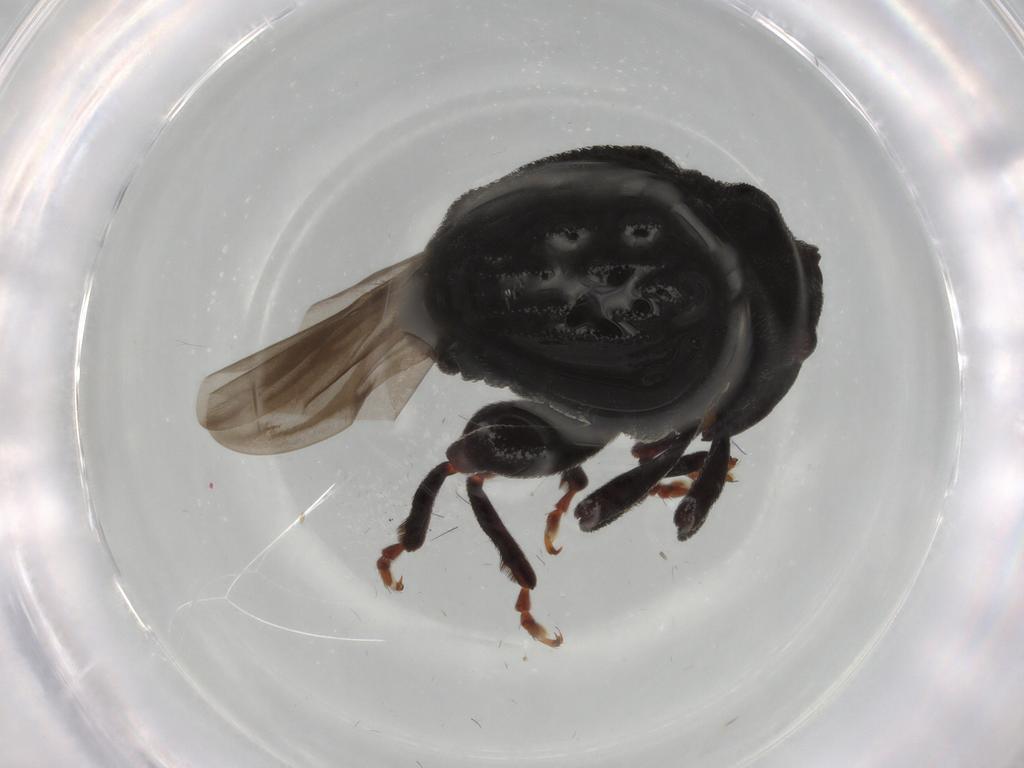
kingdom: Animalia
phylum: Arthropoda
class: Insecta
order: Coleoptera
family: Curculionidae
